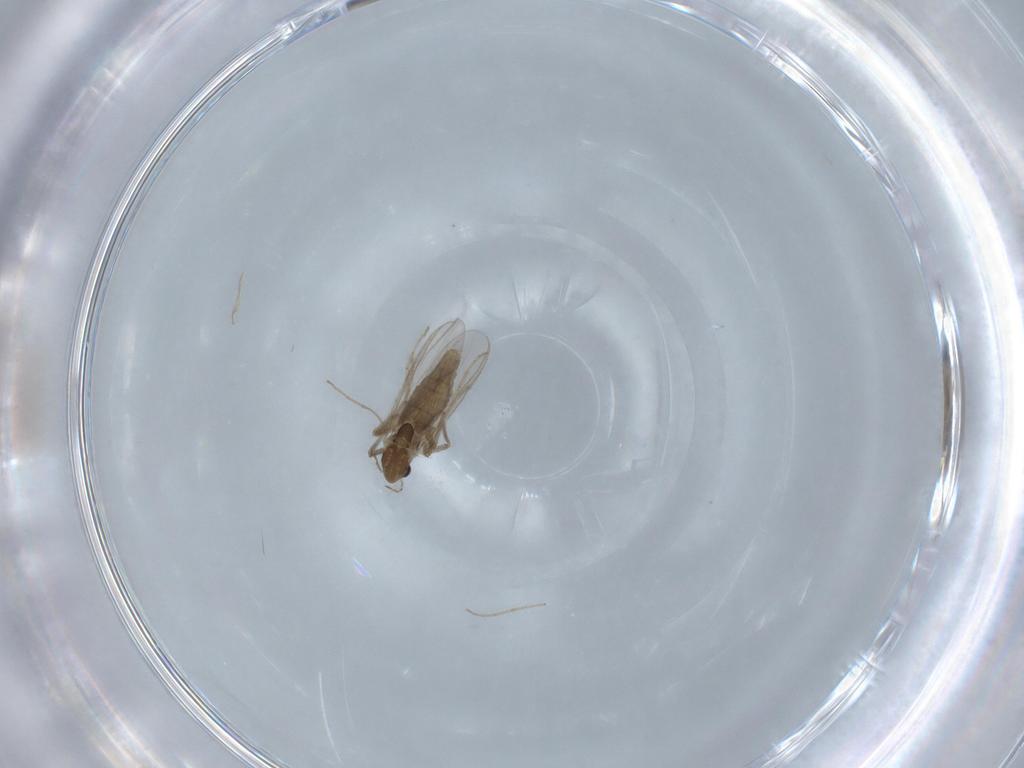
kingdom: Animalia
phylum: Arthropoda
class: Insecta
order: Diptera
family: Chironomidae
